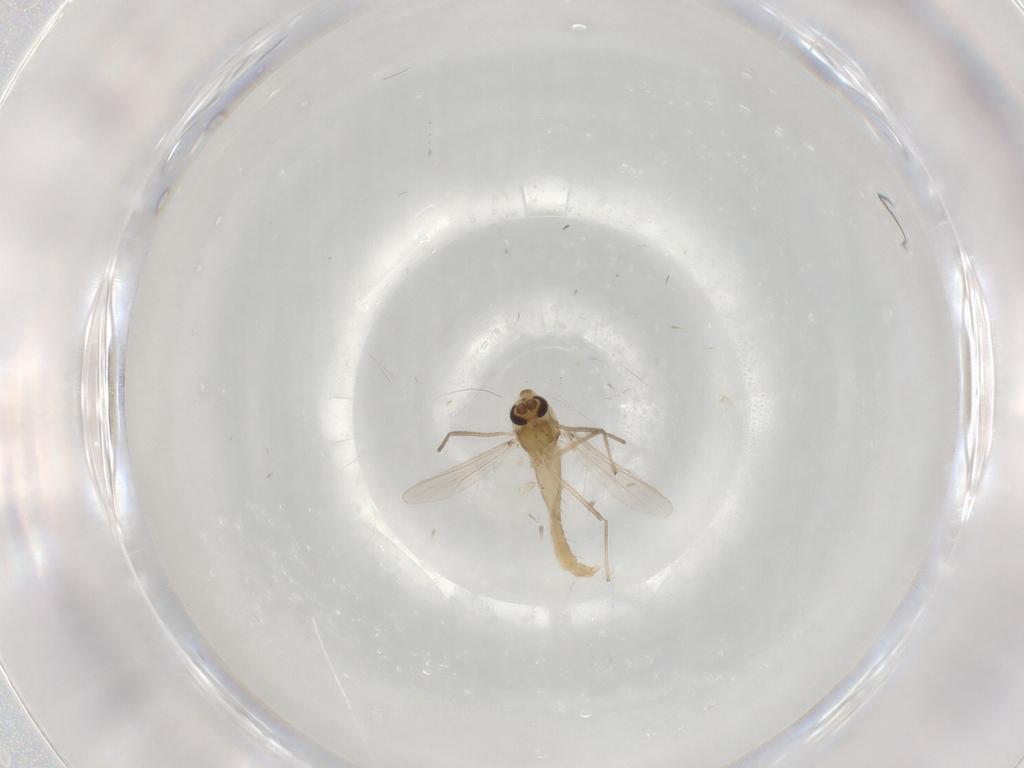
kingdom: Animalia
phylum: Arthropoda
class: Insecta
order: Diptera
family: Chironomidae
